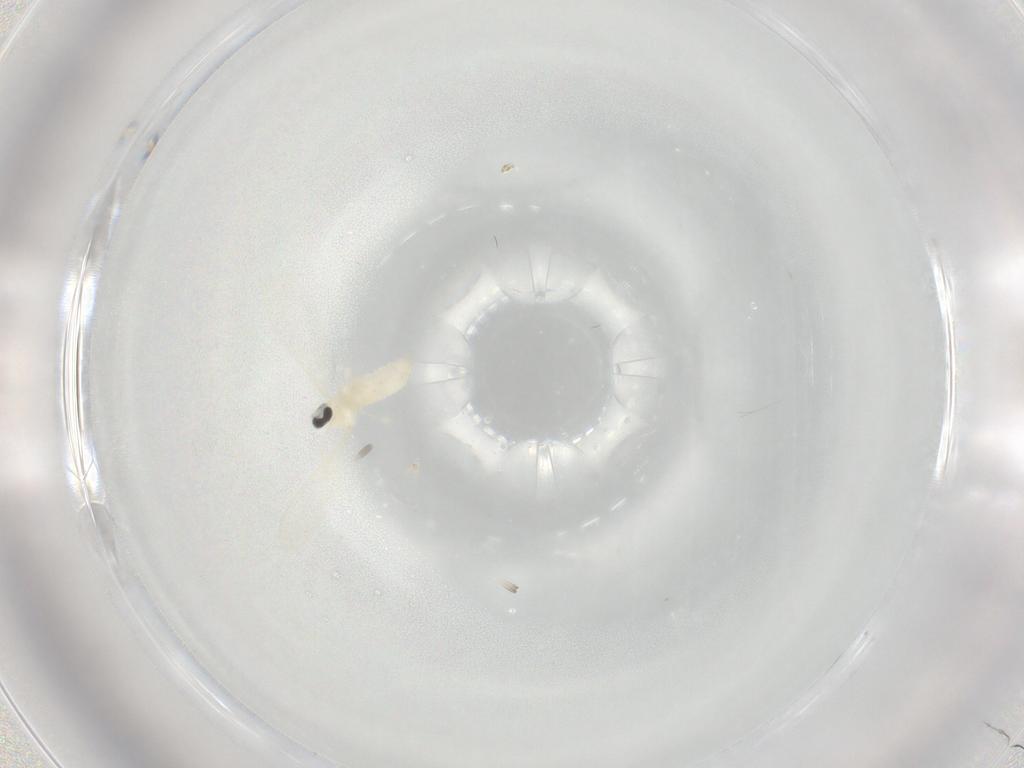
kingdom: Animalia
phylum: Arthropoda
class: Insecta
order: Diptera
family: Cecidomyiidae
